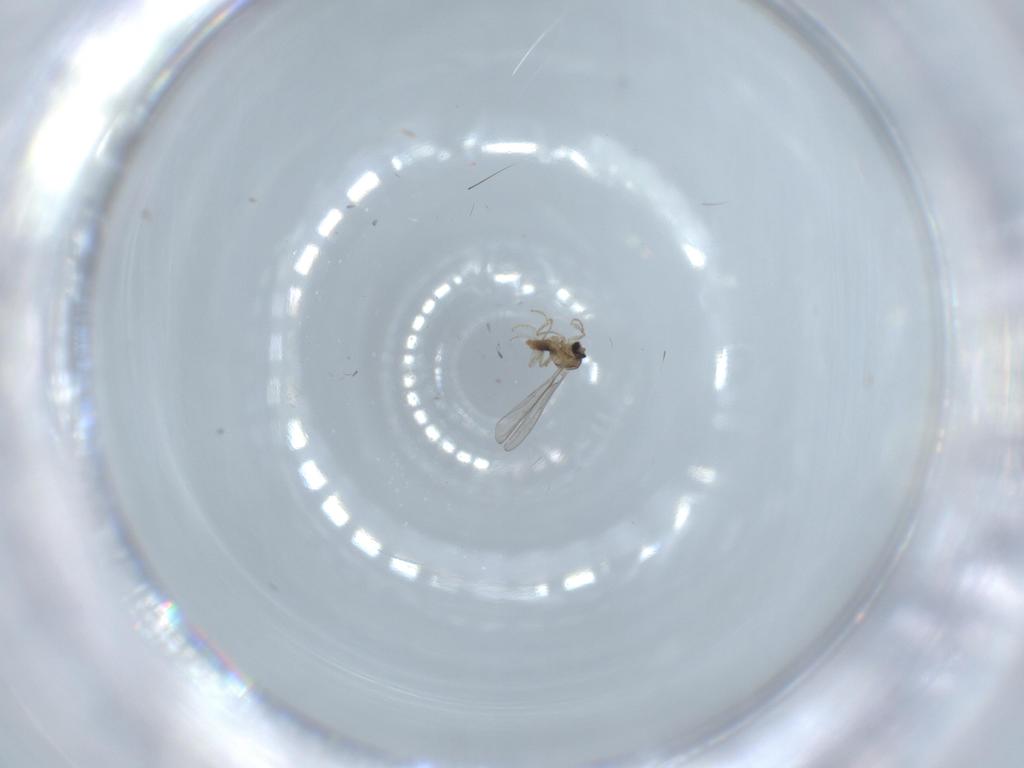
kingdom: Animalia
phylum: Arthropoda
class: Insecta
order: Diptera
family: Cecidomyiidae
